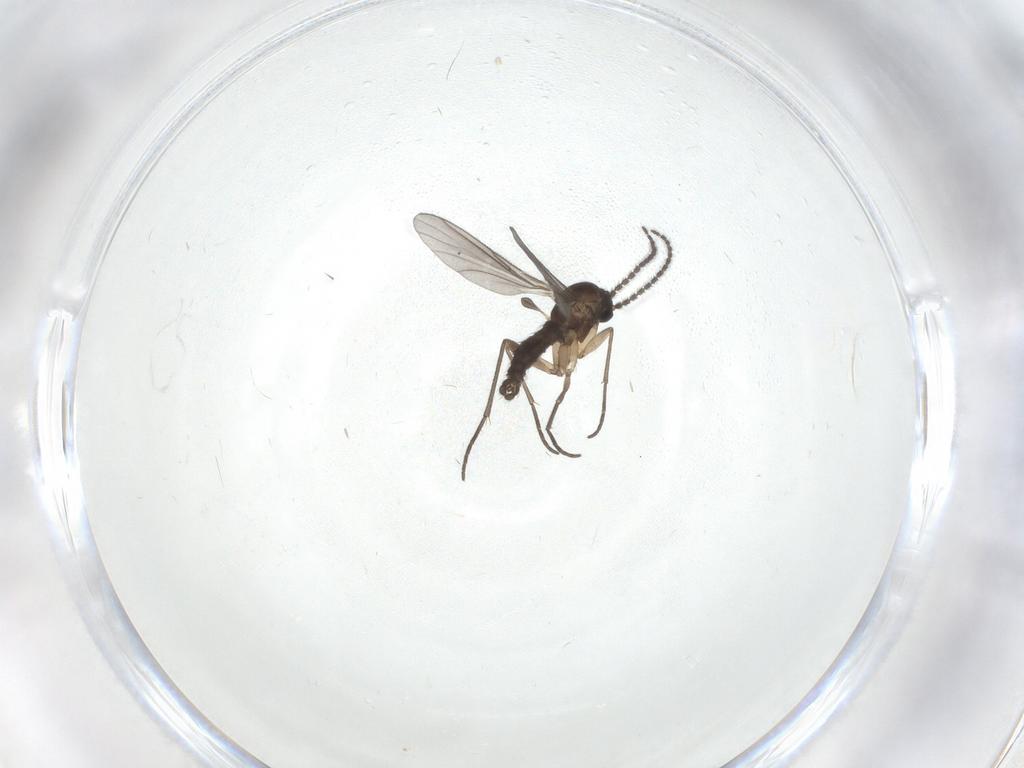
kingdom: Animalia
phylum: Arthropoda
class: Insecta
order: Diptera
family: Sciaridae
